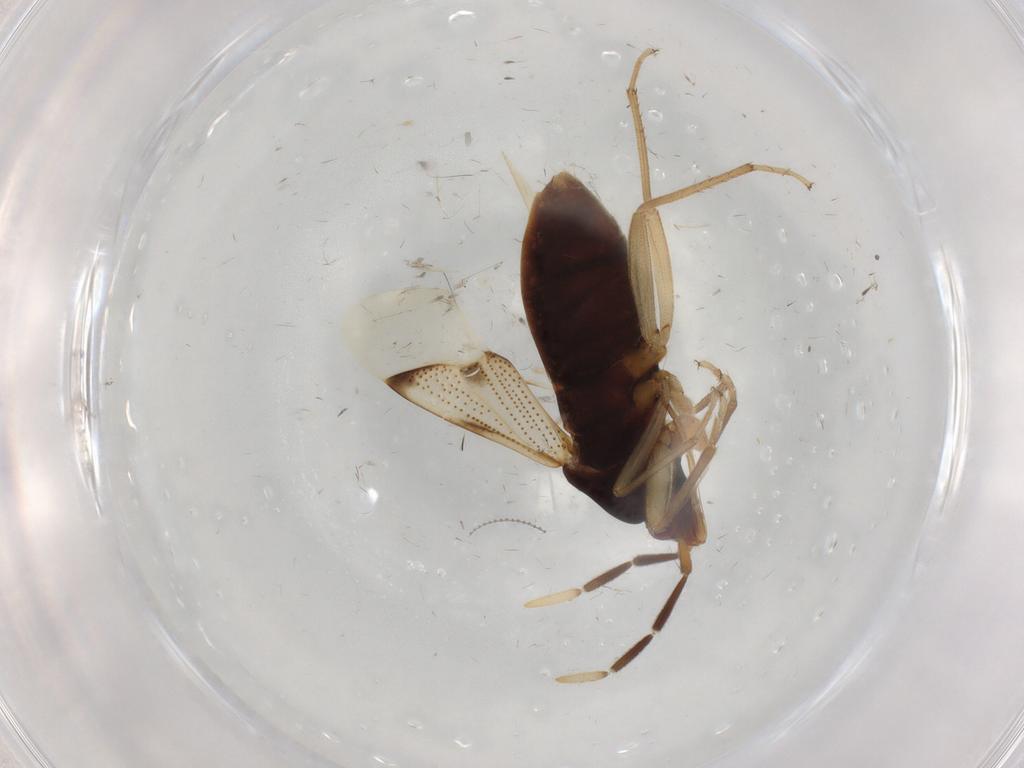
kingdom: Animalia
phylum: Arthropoda
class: Insecta
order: Hemiptera
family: Rhyparochromidae
